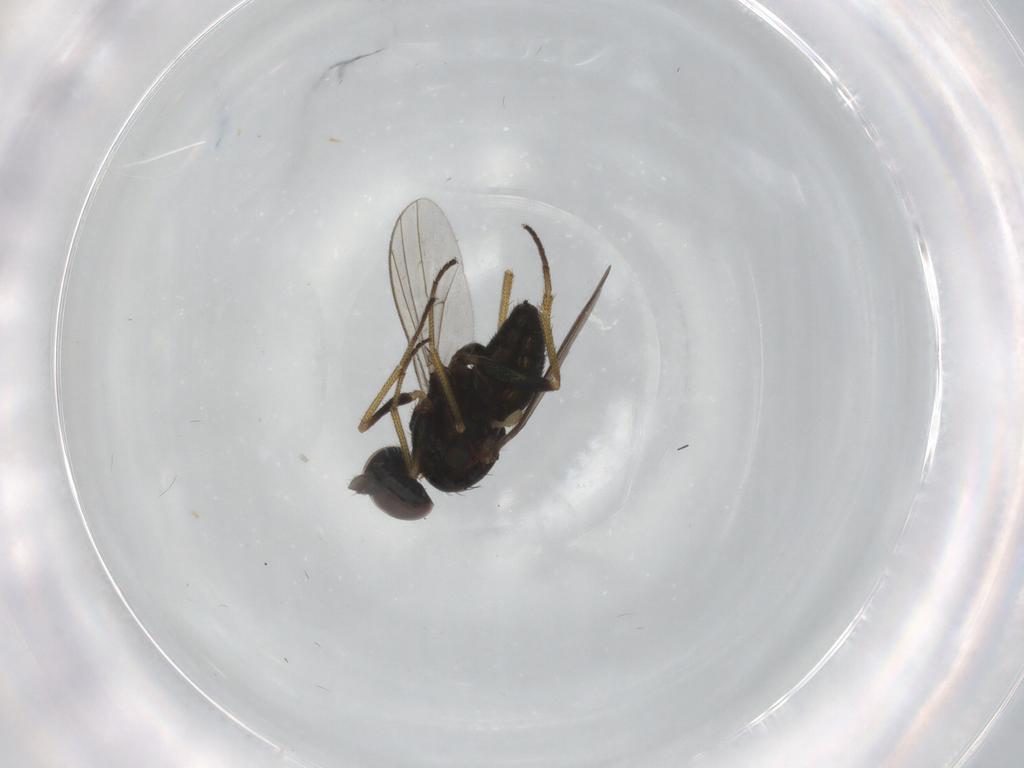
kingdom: Animalia
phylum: Arthropoda
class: Insecta
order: Diptera
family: Dolichopodidae
